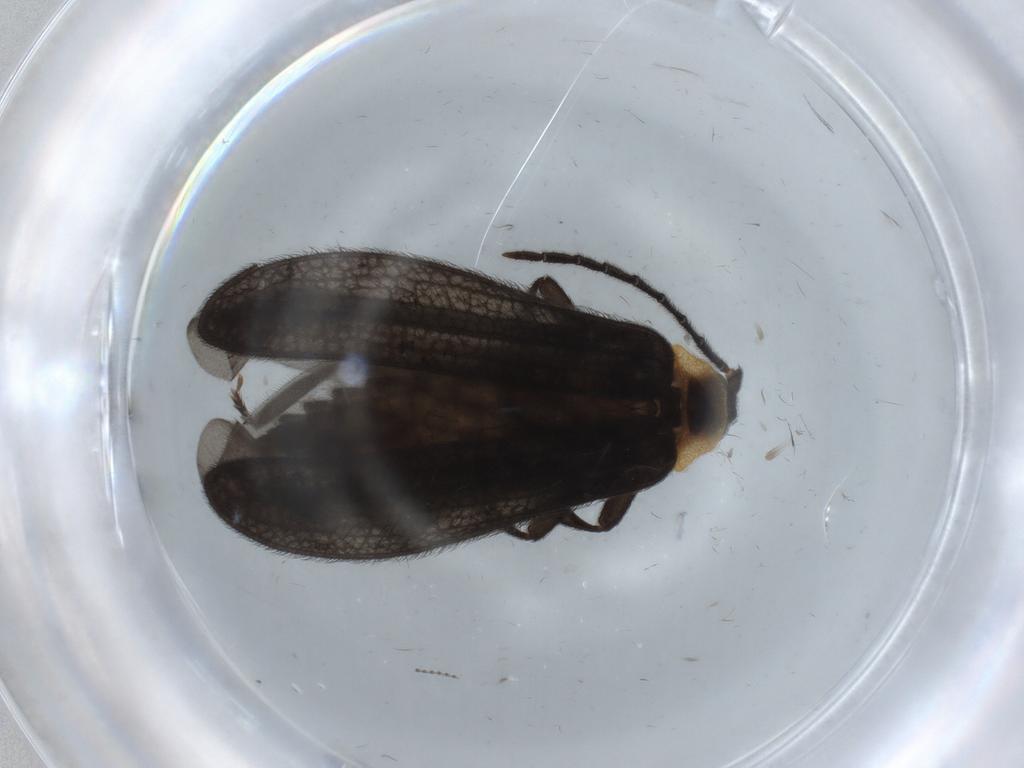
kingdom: Animalia
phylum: Arthropoda
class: Insecta
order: Coleoptera
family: Lycidae
